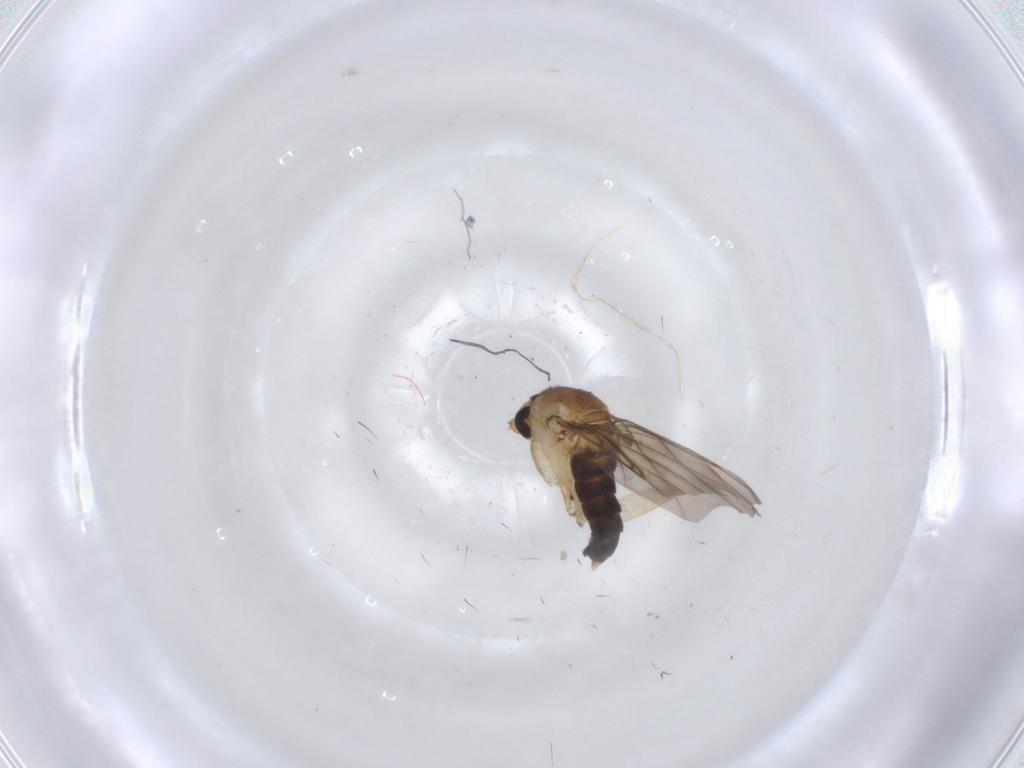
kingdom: Animalia
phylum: Arthropoda
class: Insecta
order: Diptera
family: Phoridae
